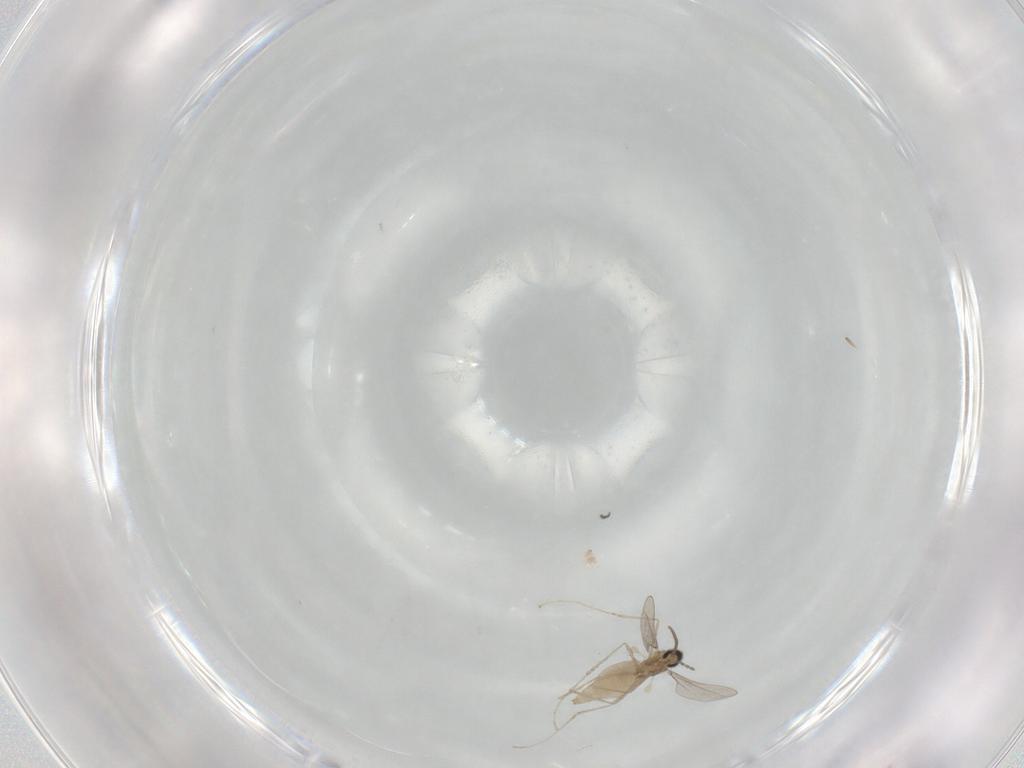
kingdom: Animalia
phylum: Arthropoda
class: Insecta
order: Diptera
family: Cecidomyiidae
